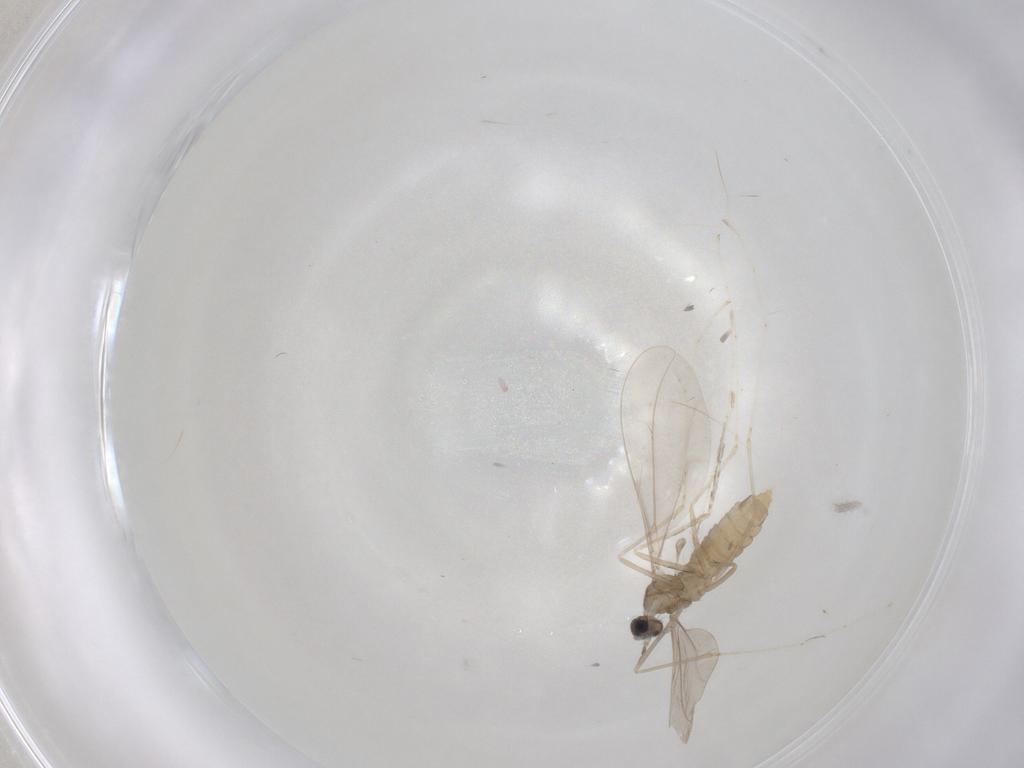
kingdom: Animalia
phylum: Arthropoda
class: Insecta
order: Diptera
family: Cecidomyiidae
